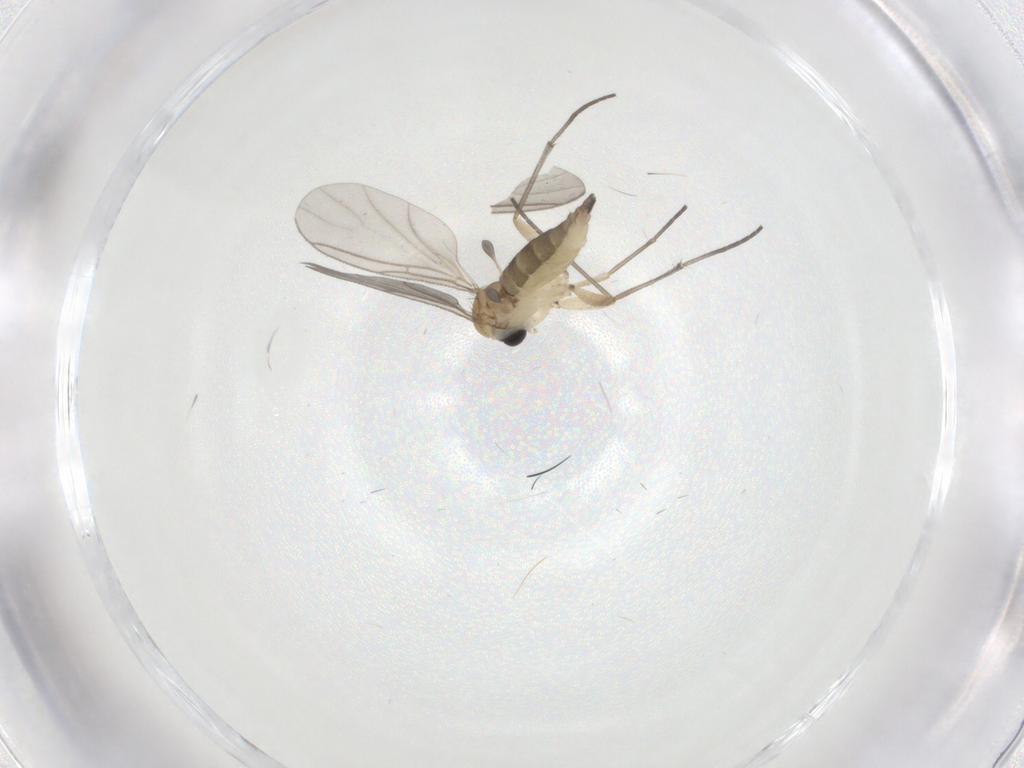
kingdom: Animalia
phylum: Arthropoda
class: Insecta
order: Diptera
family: Sciaridae
